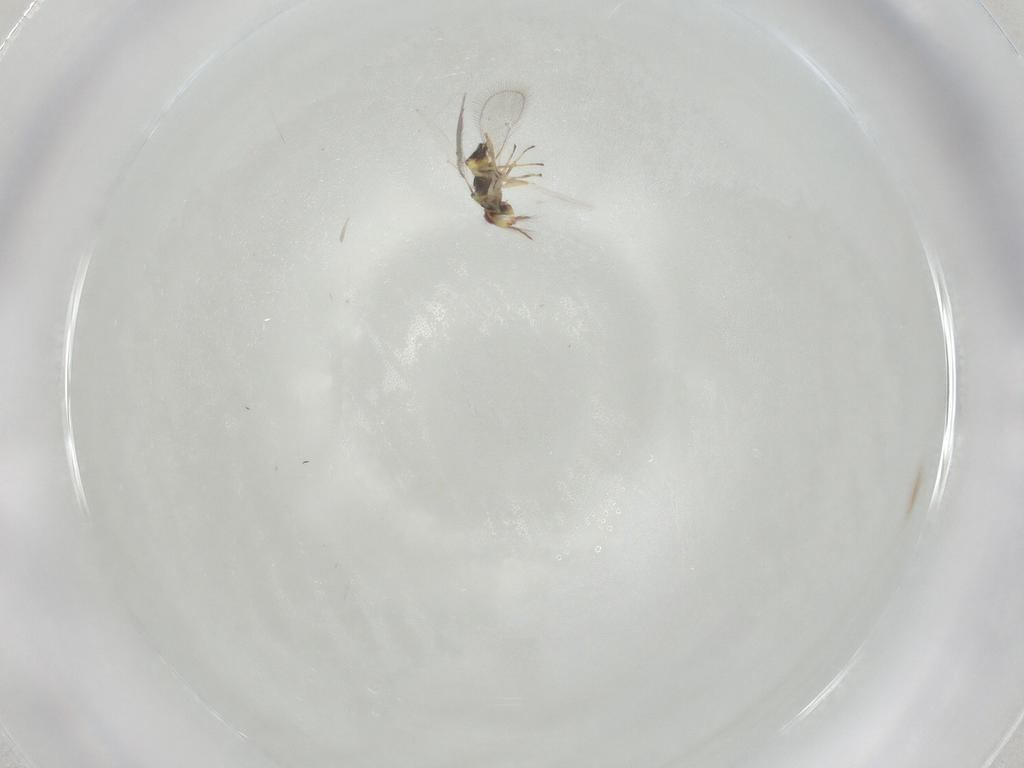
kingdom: Animalia
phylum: Arthropoda
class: Insecta
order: Hymenoptera
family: Eulophidae
